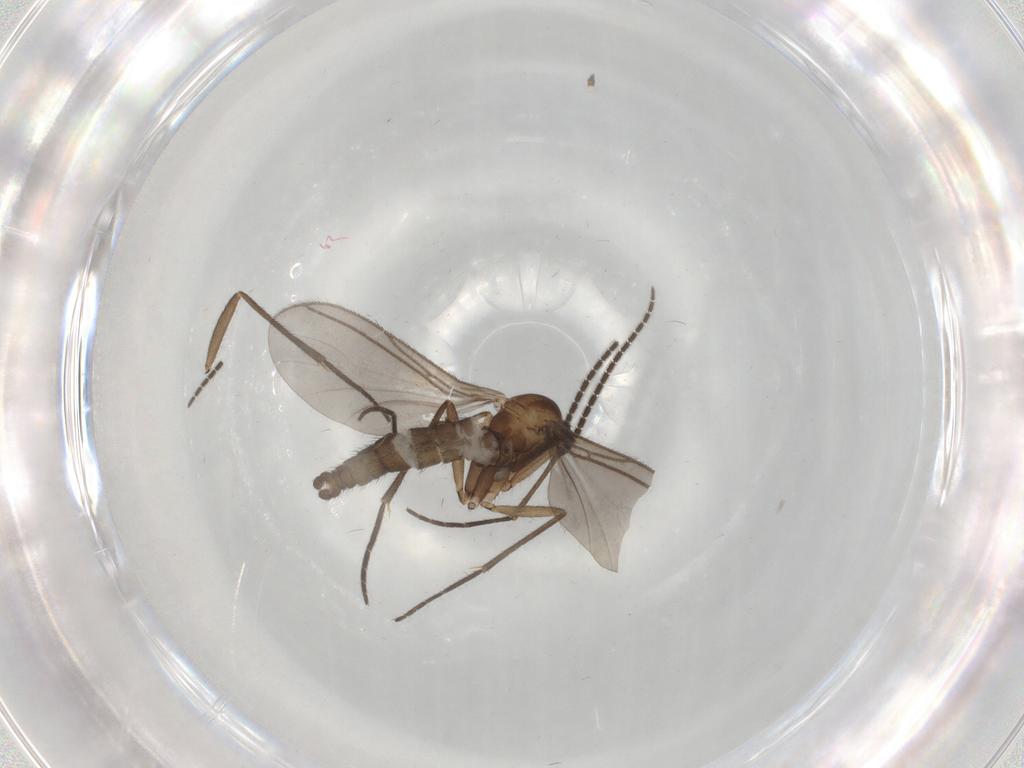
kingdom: Animalia
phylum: Arthropoda
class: Insecta
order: Diptera
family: Sciaridae
